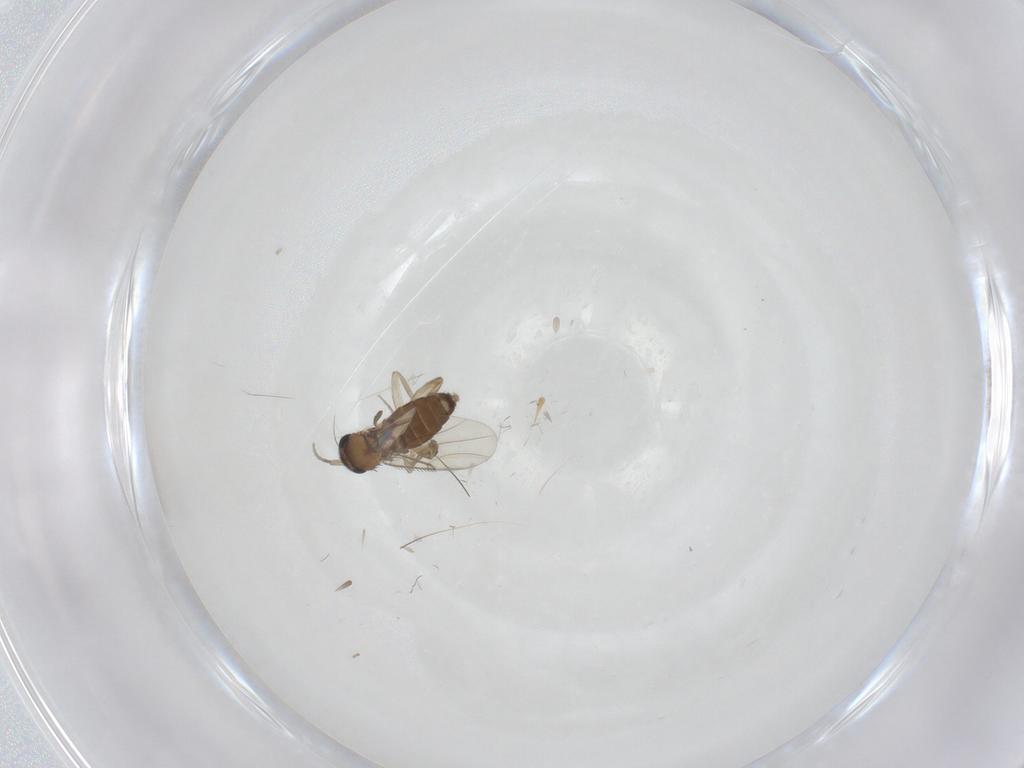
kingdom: Animalia
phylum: Arthropoda
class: Insecta
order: Diptera
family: Phoridae
